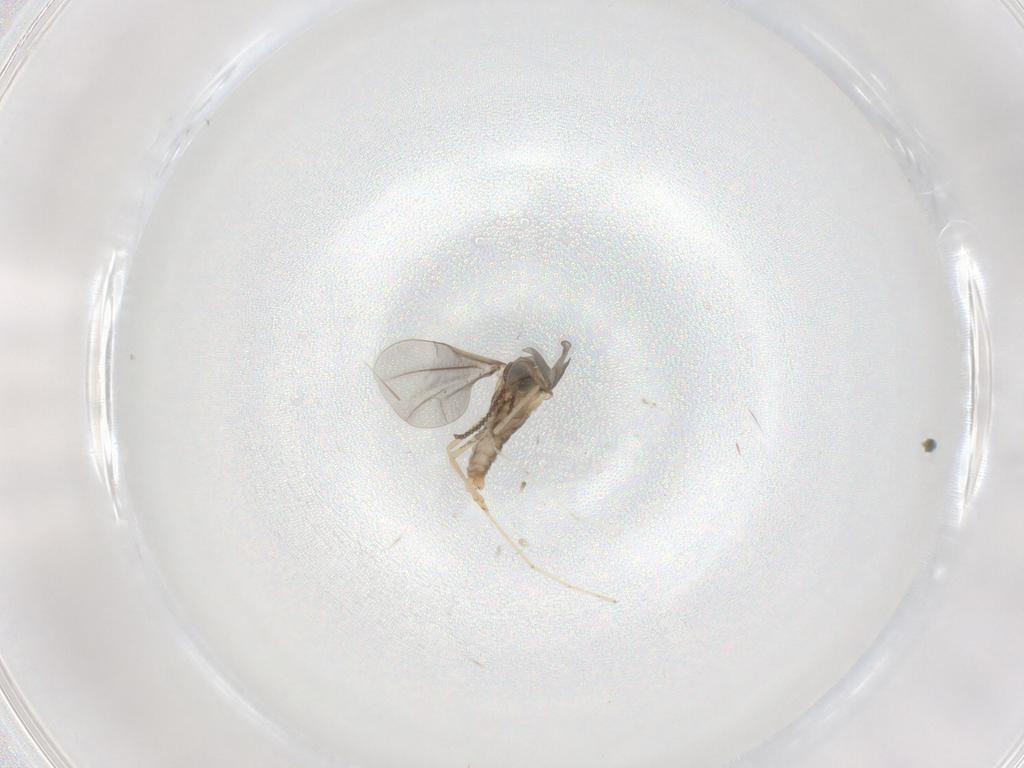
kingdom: Animalia
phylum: Arthropoda
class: Insecta
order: Diptera
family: Cecidomyiidae
